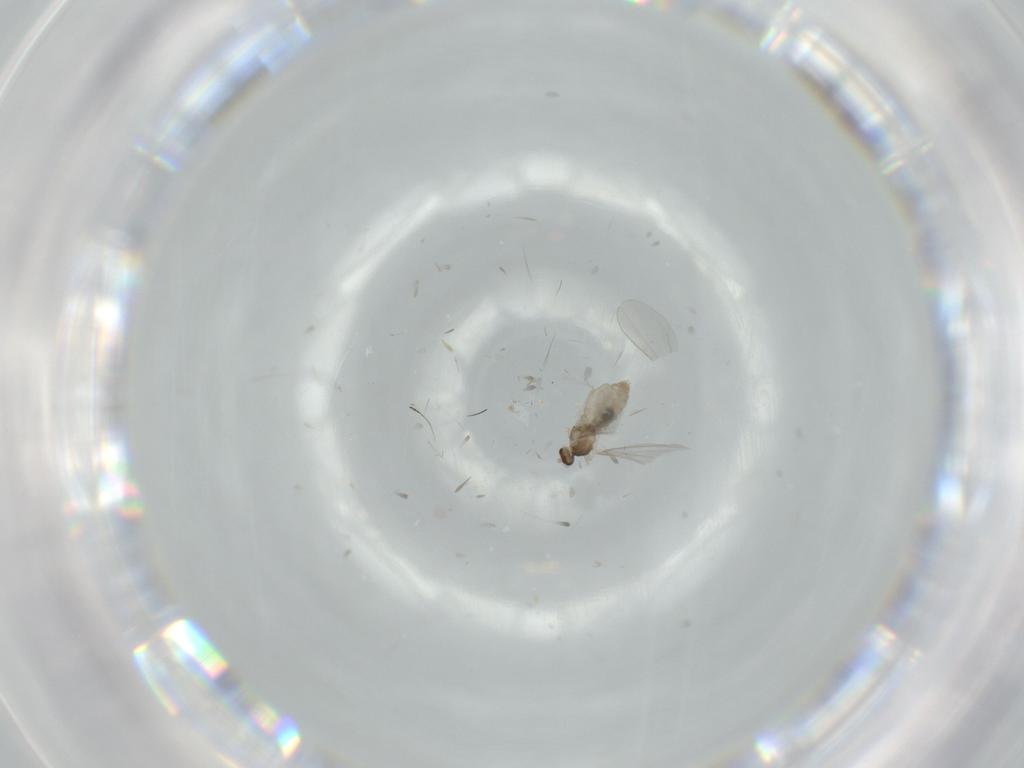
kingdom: Animalia
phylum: Arthropoda
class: Insecta
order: Diptera
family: Cecidomyiidae
